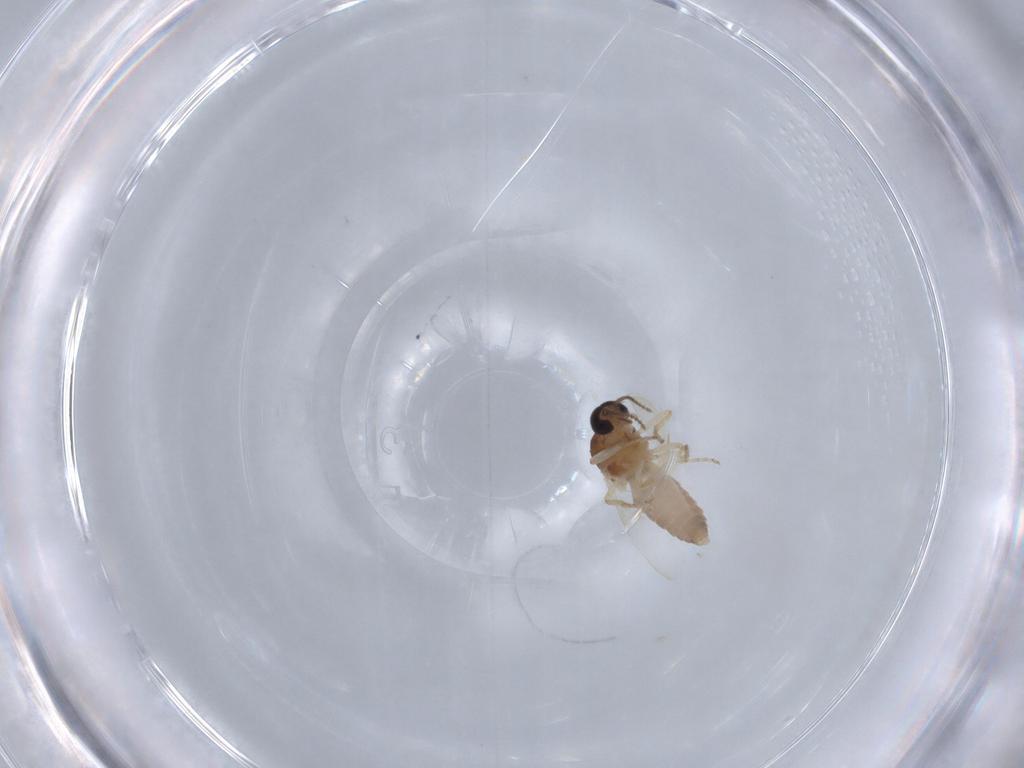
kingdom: Animalia
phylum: Arthropoda
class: Insecta
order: Diptera
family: Ceratopogonidae
